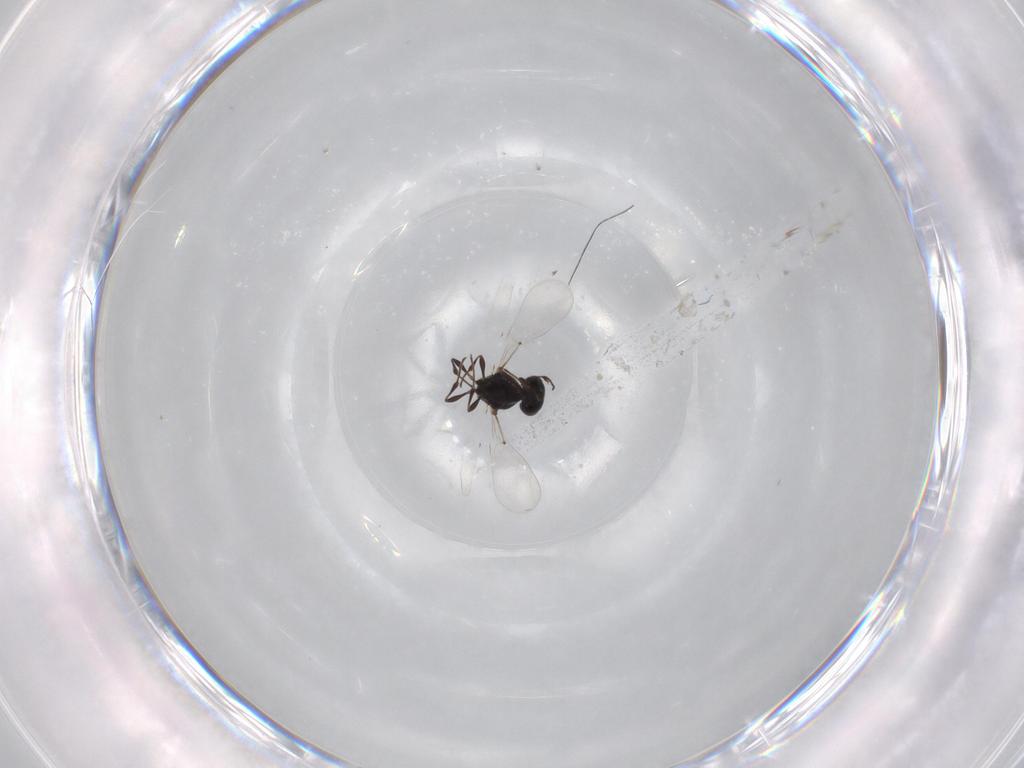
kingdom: Animalia
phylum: Arthropoda
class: Insecta
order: Hymenoptera
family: Platygastridae
